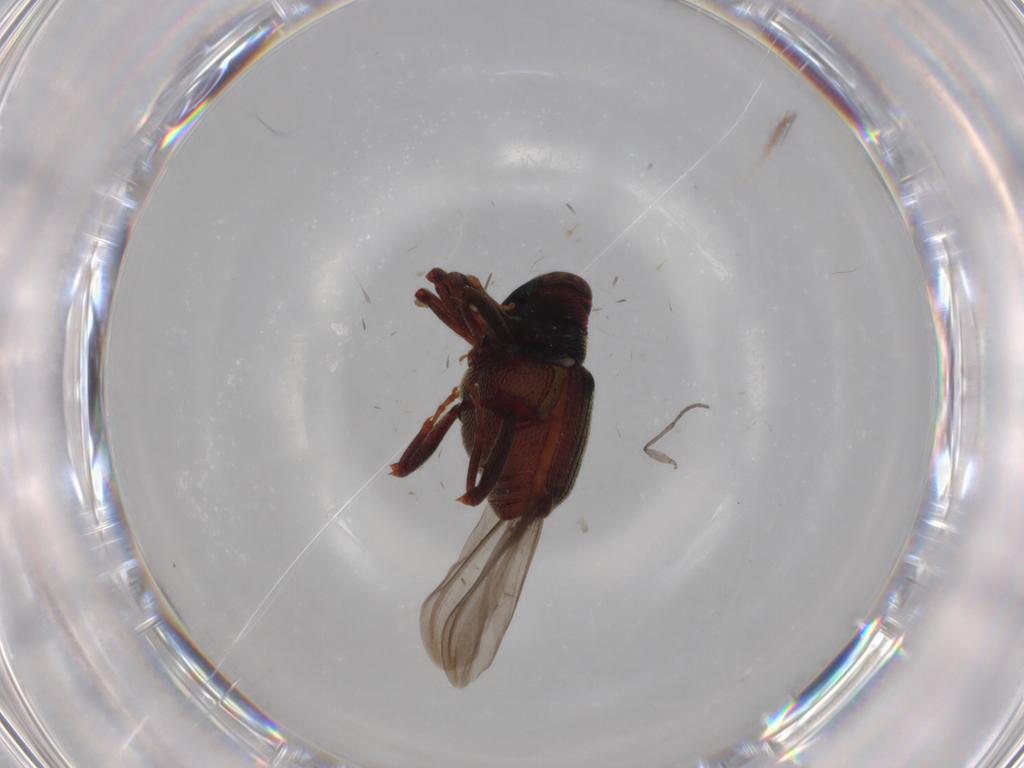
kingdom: Animalia
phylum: Arthropoda
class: Insecta
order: Coleoptera
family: Curculionidae
